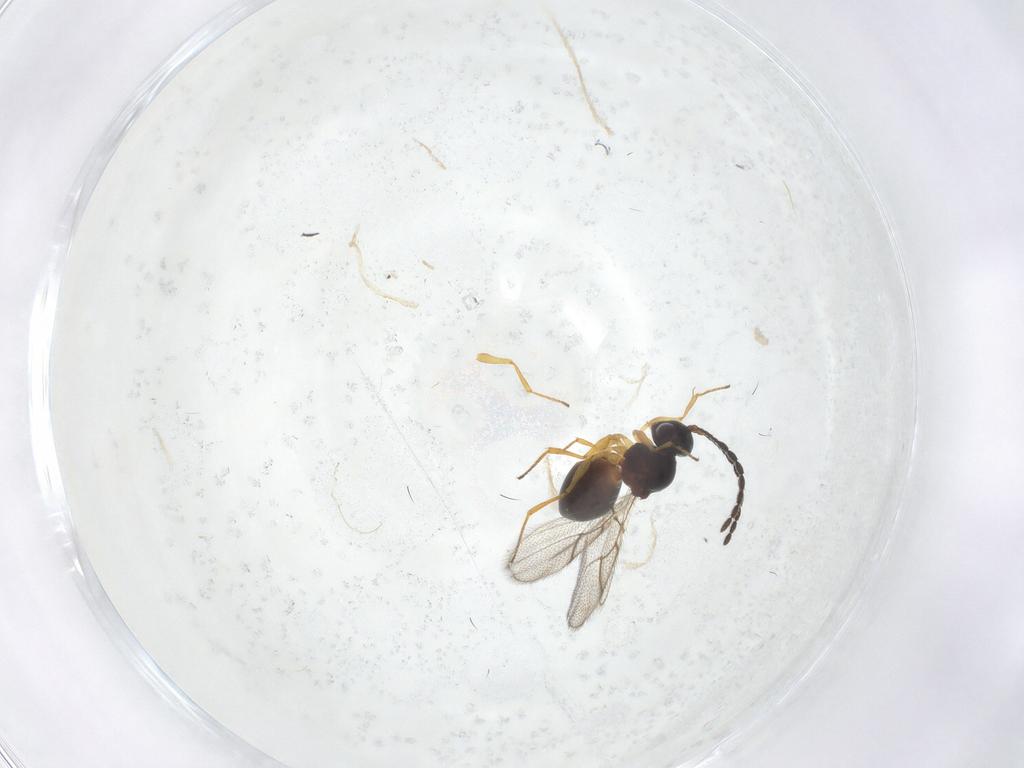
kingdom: Animalia
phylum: Arthropoda
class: Insecta
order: Hymenoptera
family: Figitidae
